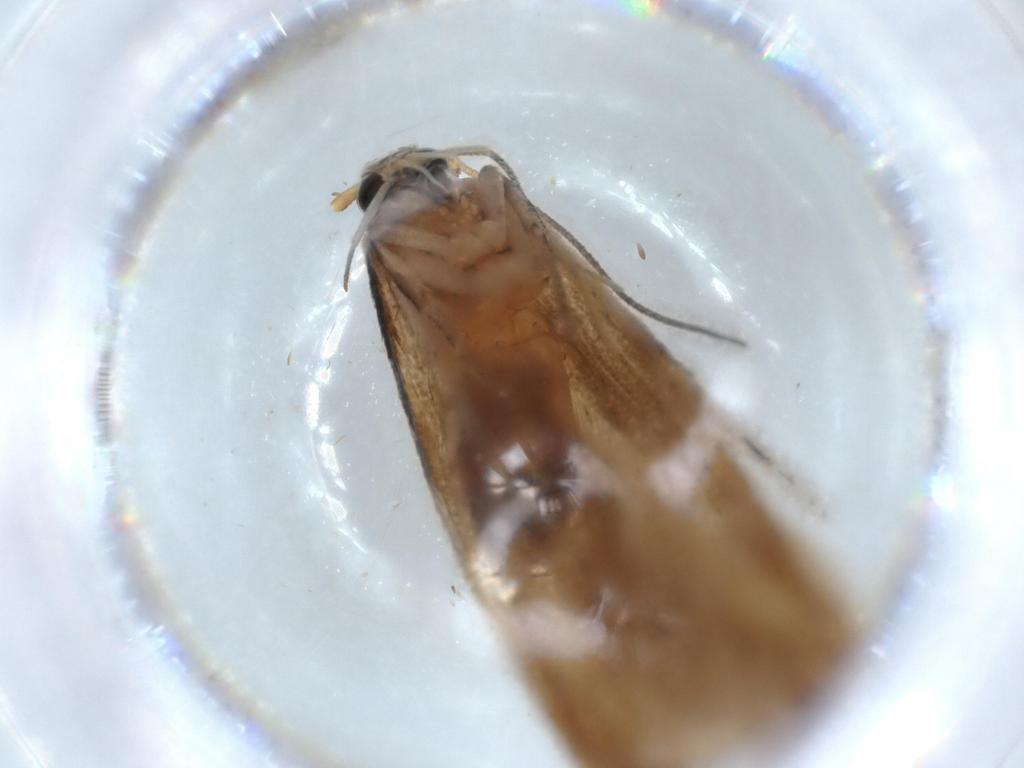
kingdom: Animalia
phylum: Arthropoda
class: Insecta
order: Lepidoptera
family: Stathmopodidae
